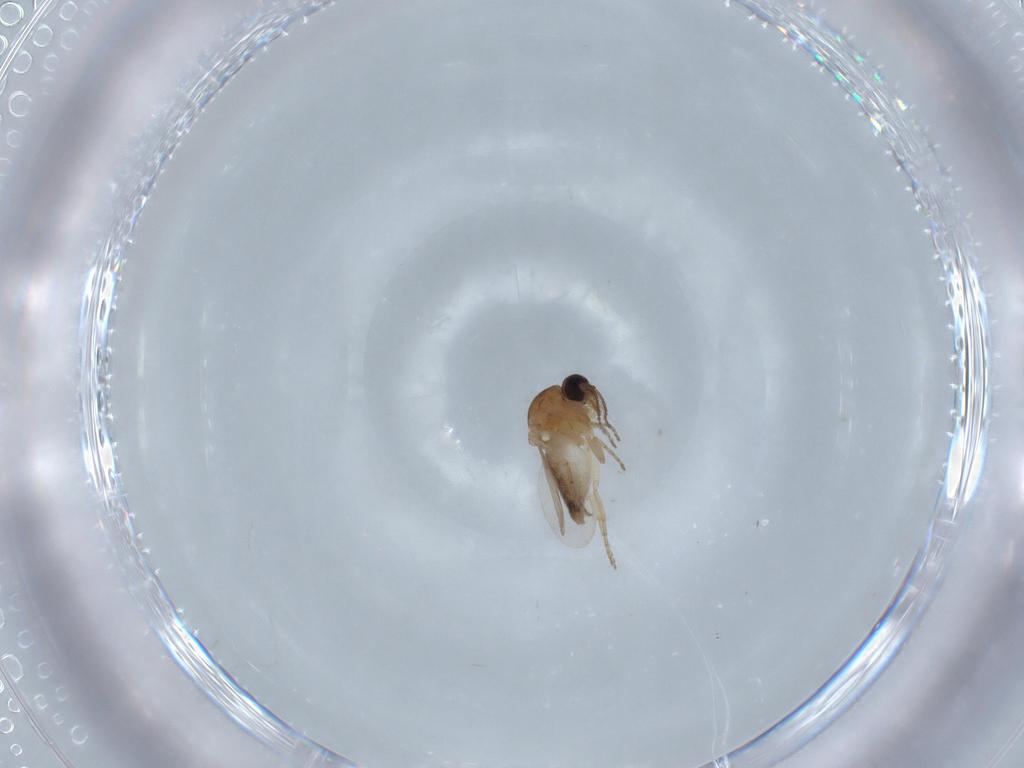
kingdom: Animalia
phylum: Arthropoda
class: Insecta
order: Diptera
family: Ceratopogonidae
